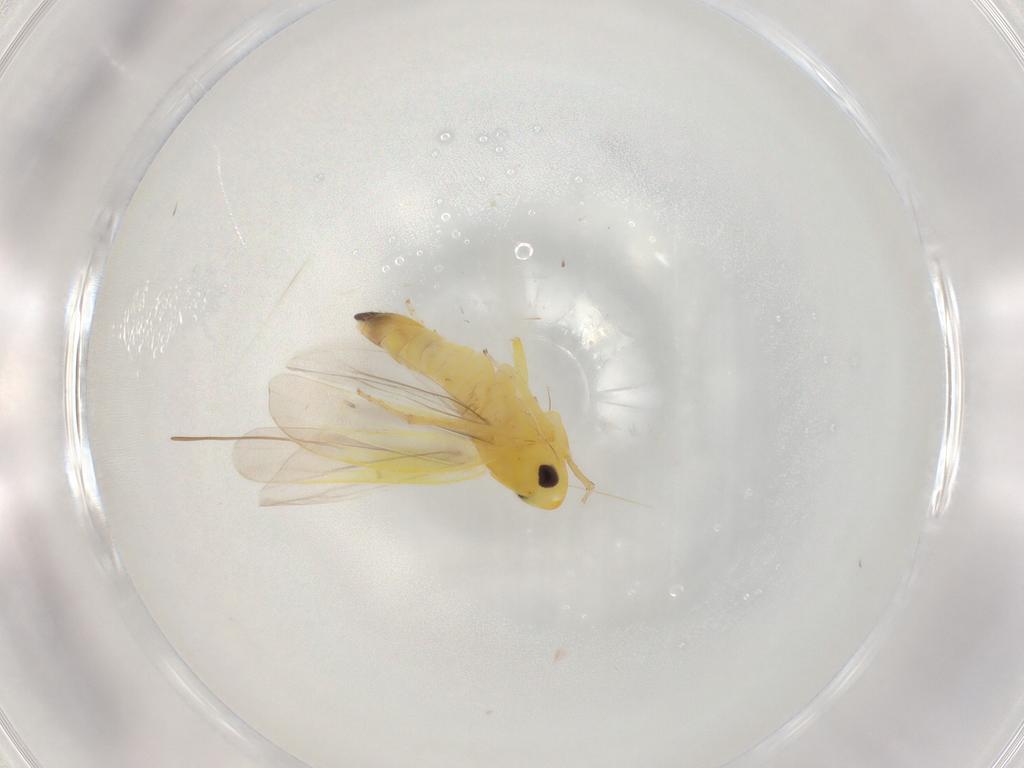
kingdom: Animalia
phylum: Arthropoda
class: Insecta
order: Hemiptera
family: Cicadellidae
